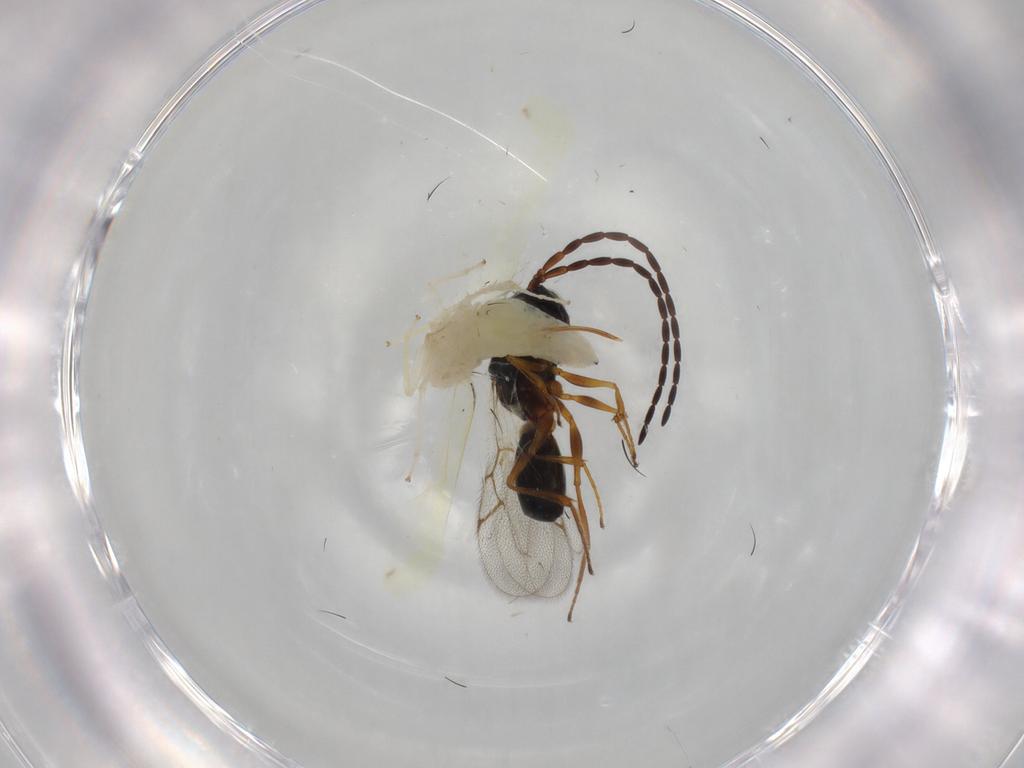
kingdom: Animalia
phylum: Arthropoda
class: Insecta
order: Hemiptera
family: Cicadellidae
